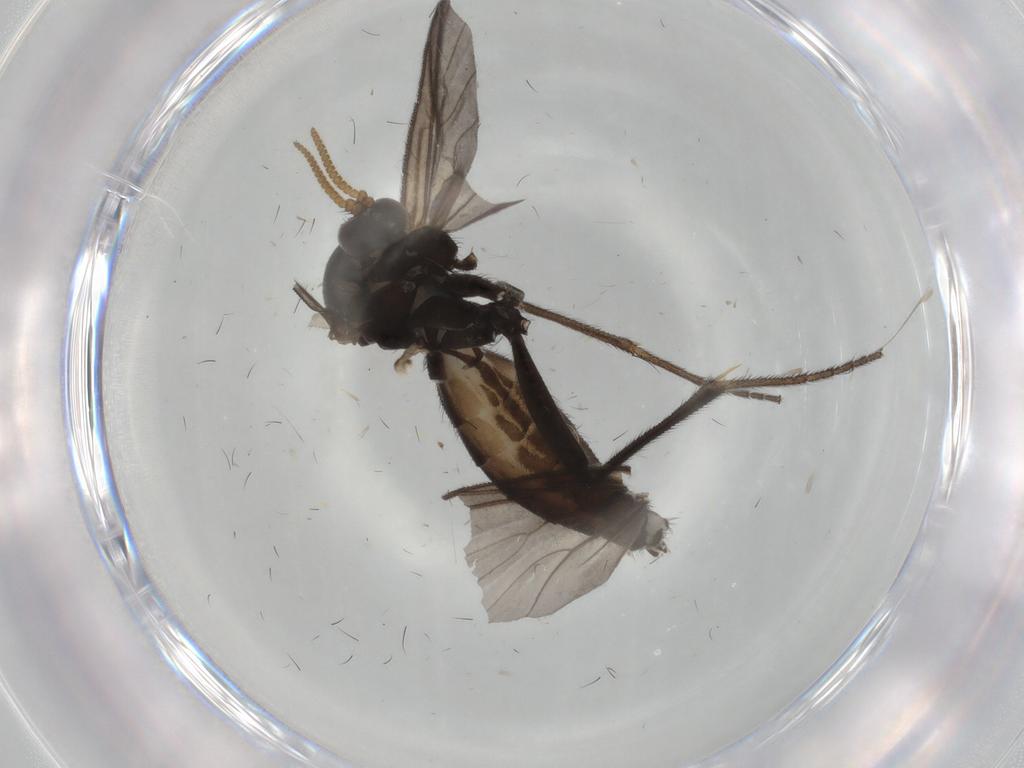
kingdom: Animalia
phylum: Arthropoda
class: Insecta
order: Diptera
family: Mycetophilidae
